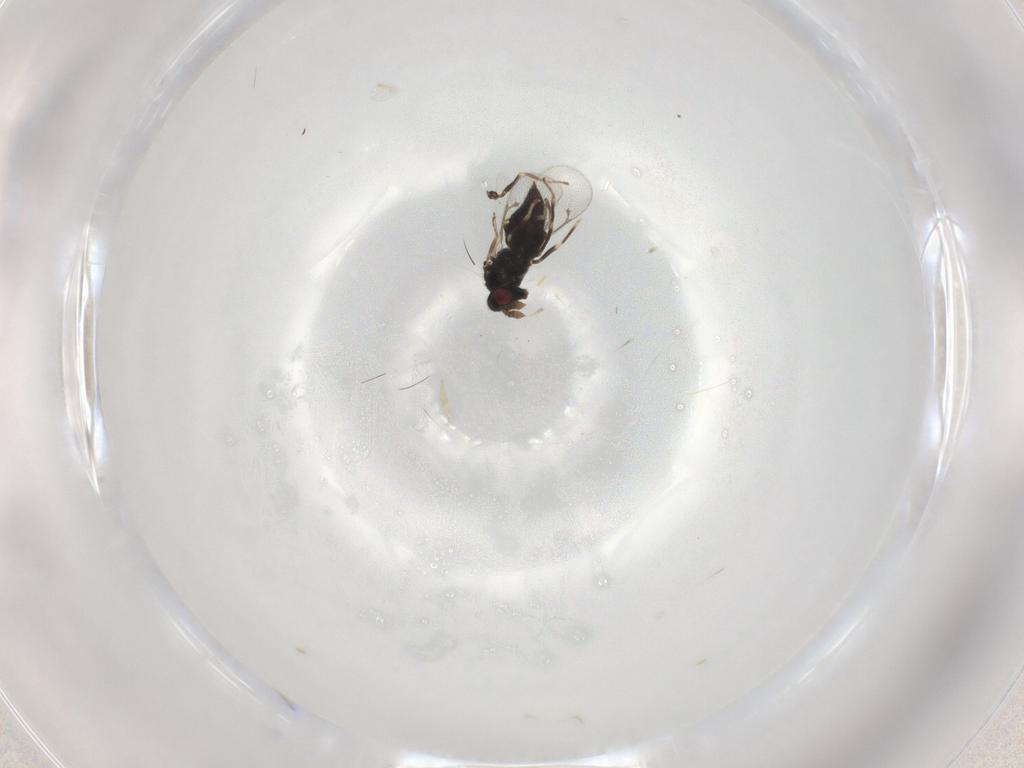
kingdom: Animalia
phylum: Arthropoda
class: Insecta
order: Hymenoptera
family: Eulophidae
